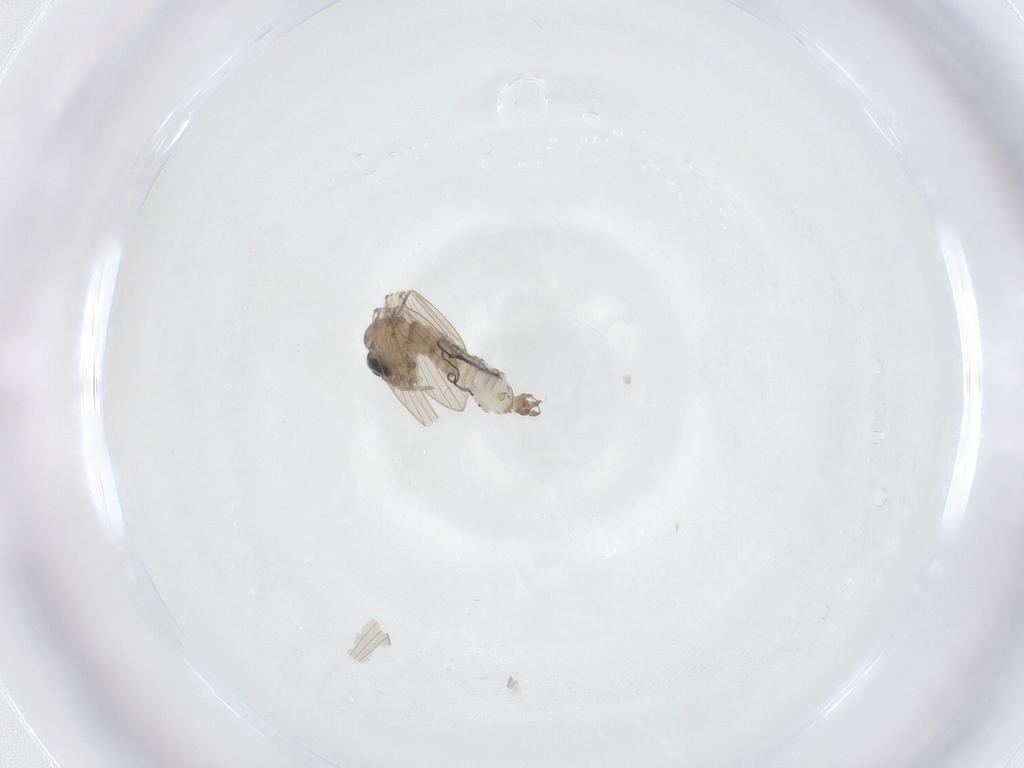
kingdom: Animalia
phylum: Arthropoda
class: Insecta
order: Diptera
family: Psychodidae
